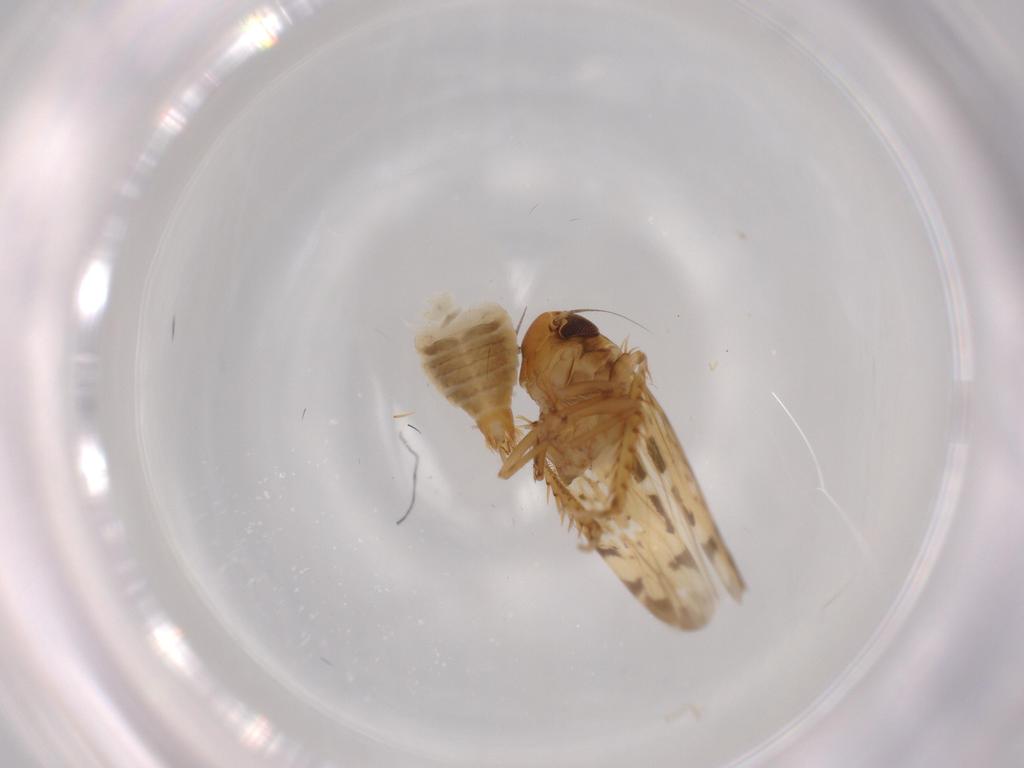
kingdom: Animalia
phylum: Arthropoda
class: Insecta
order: Hemiptera
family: Cicadellidae
